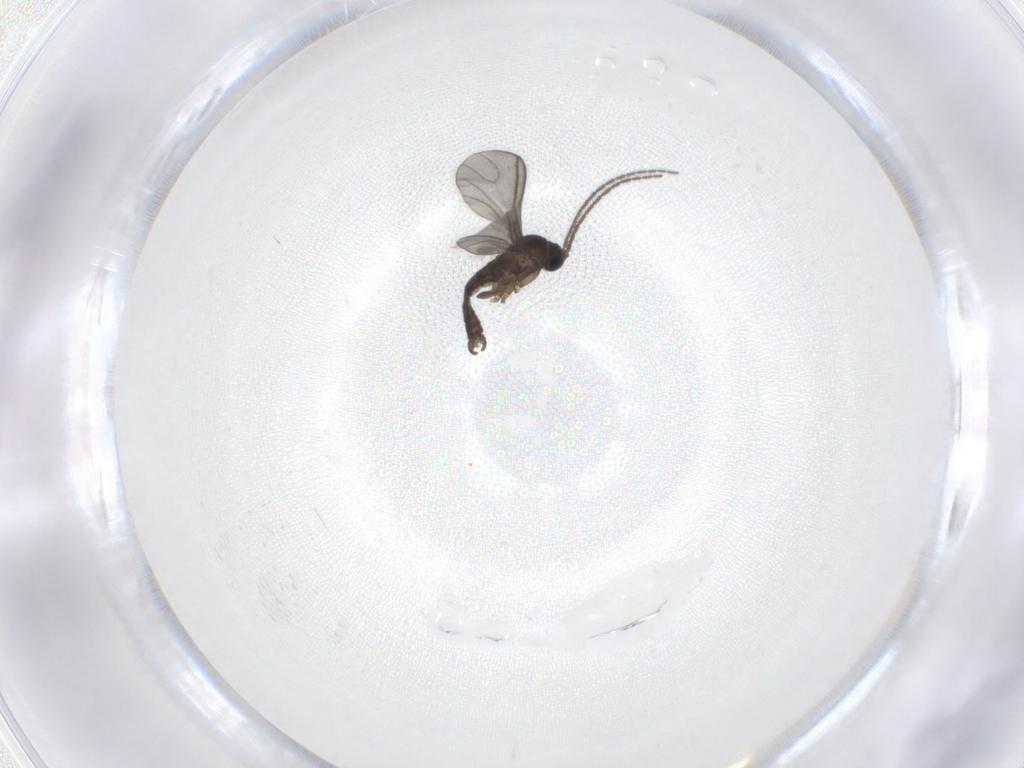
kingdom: Animalia
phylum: Arthropoda
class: Insecta
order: Diptera
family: Sciaridae
